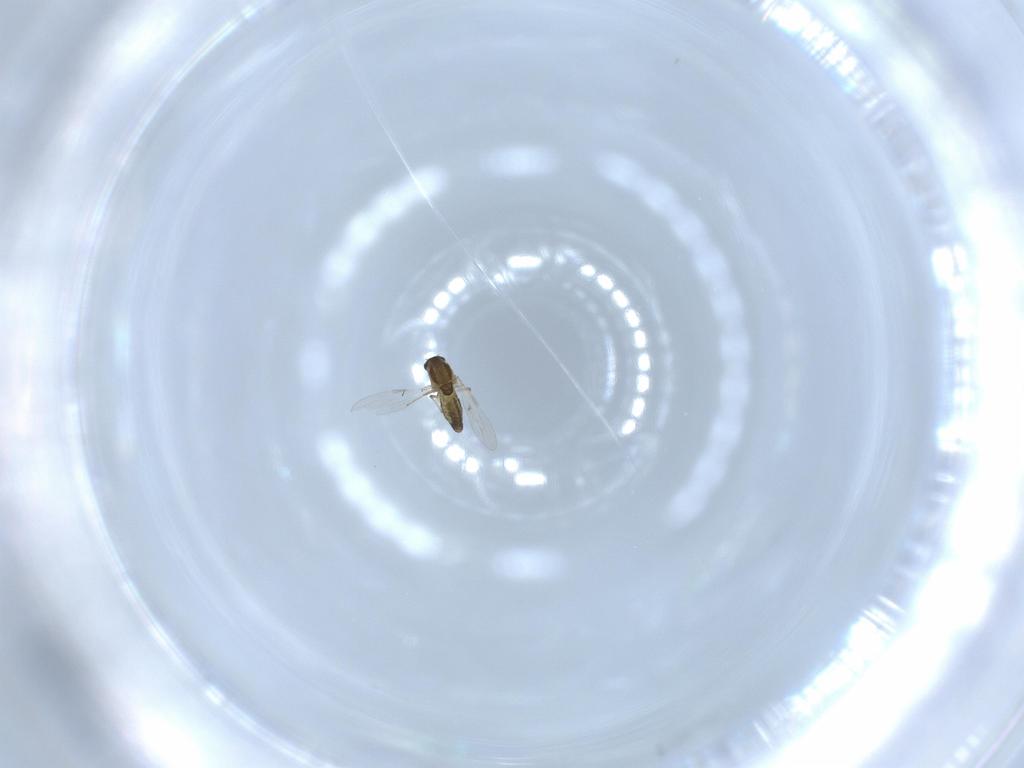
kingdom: Animalia
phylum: Arthropoda
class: Insecta
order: Diptera
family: Chironomidae
